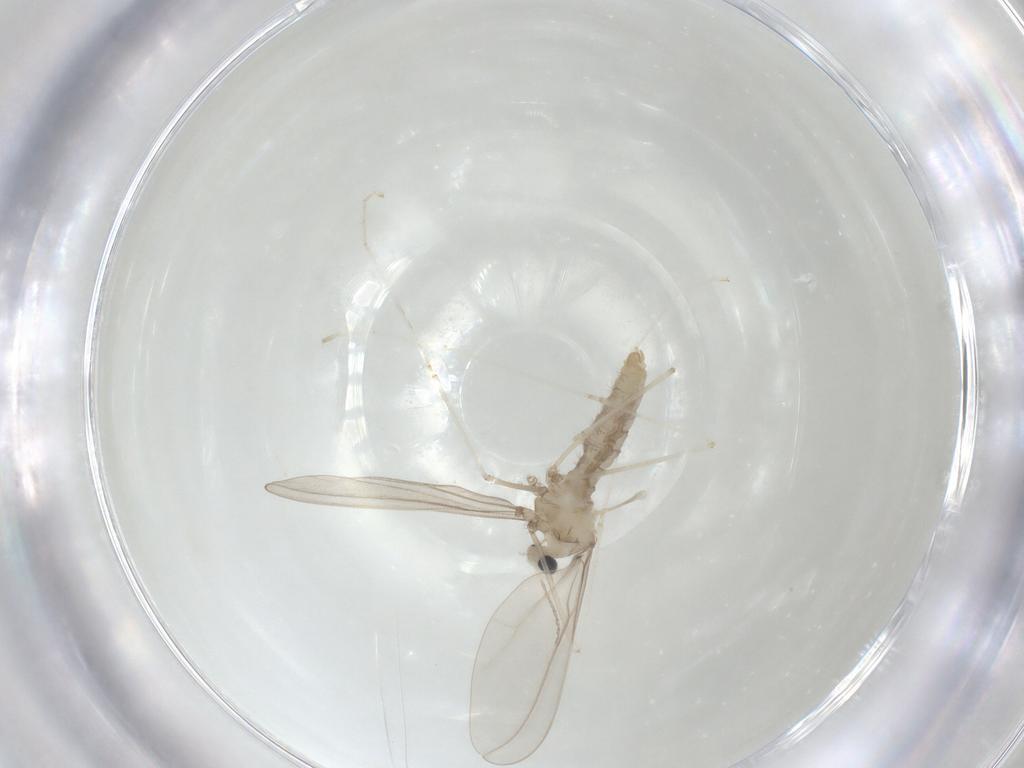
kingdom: Animalia
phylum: Arthropoda
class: Insecta
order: Diptera
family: Cecidomyiidae
